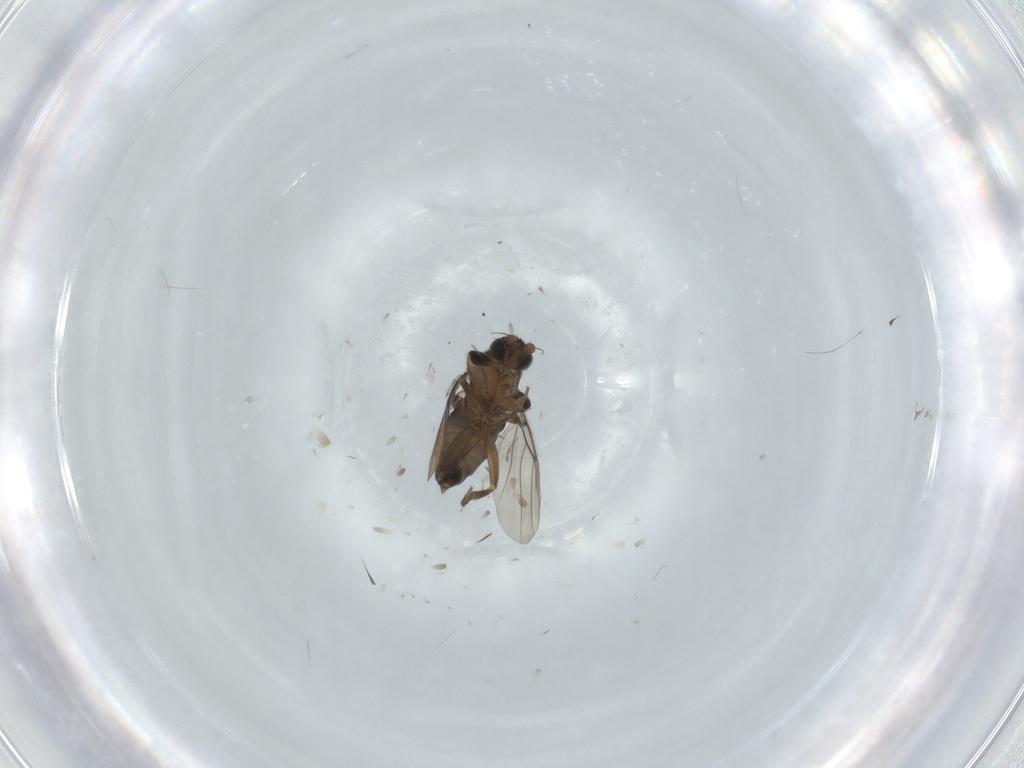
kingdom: Animalia
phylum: Arthropoda
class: Insecta
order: Diptera
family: Phoridae
